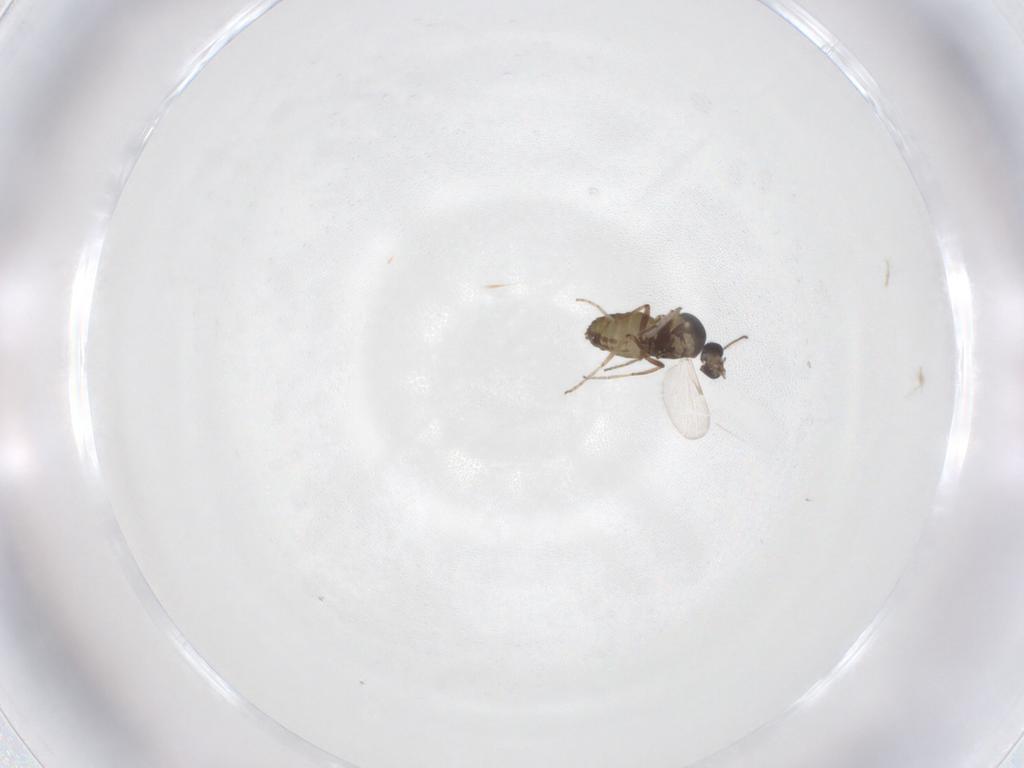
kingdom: Animalia
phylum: Arthropoda
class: Insecta
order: Diptera
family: Ceratopogonidae
